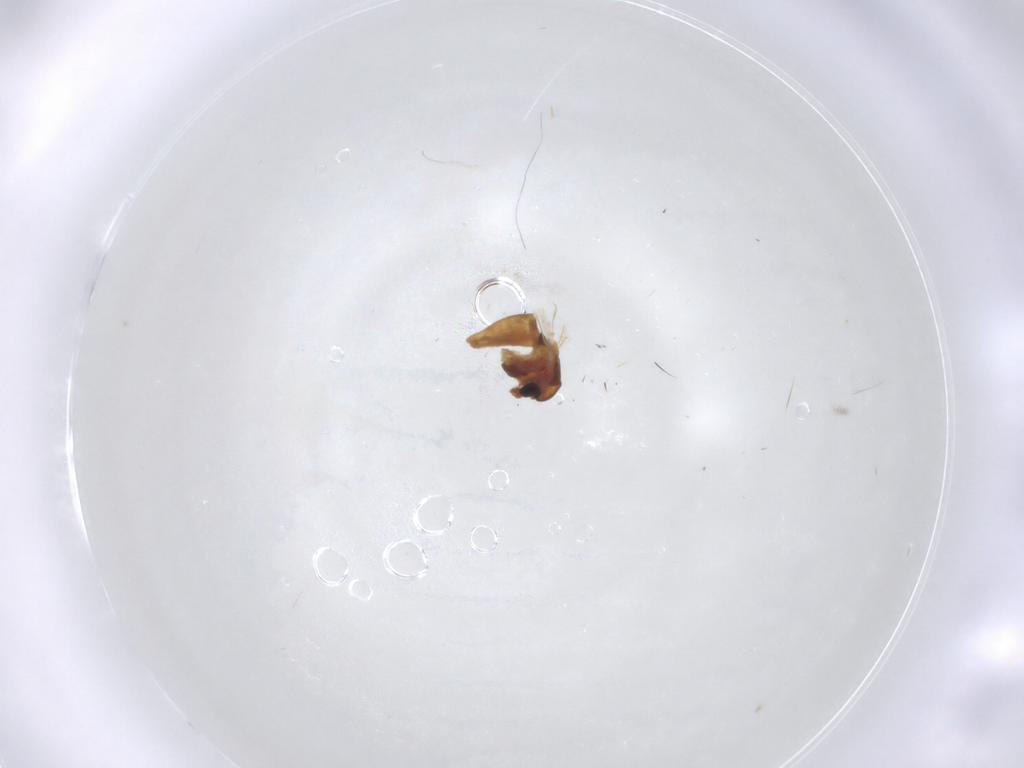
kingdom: Animalia
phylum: Arthropoda
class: Insecta
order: Diptera
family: Chironomidae
